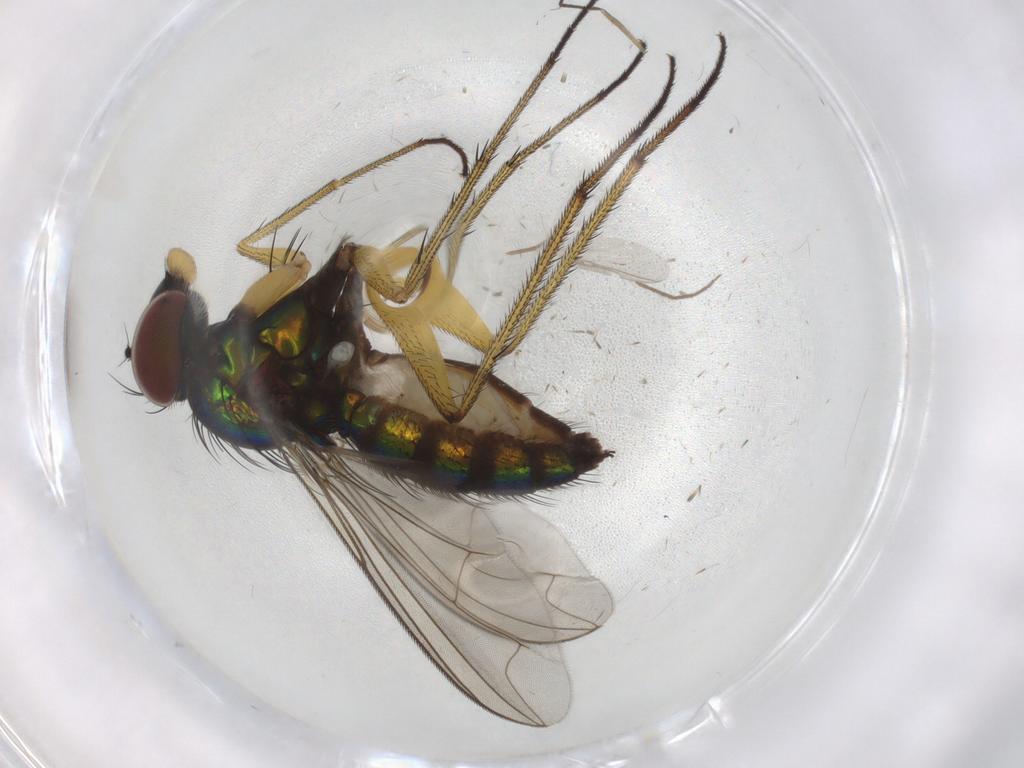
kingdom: Animalia
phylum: Arthropoda
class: Insecta
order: Diptera
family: Dolichopodidae
